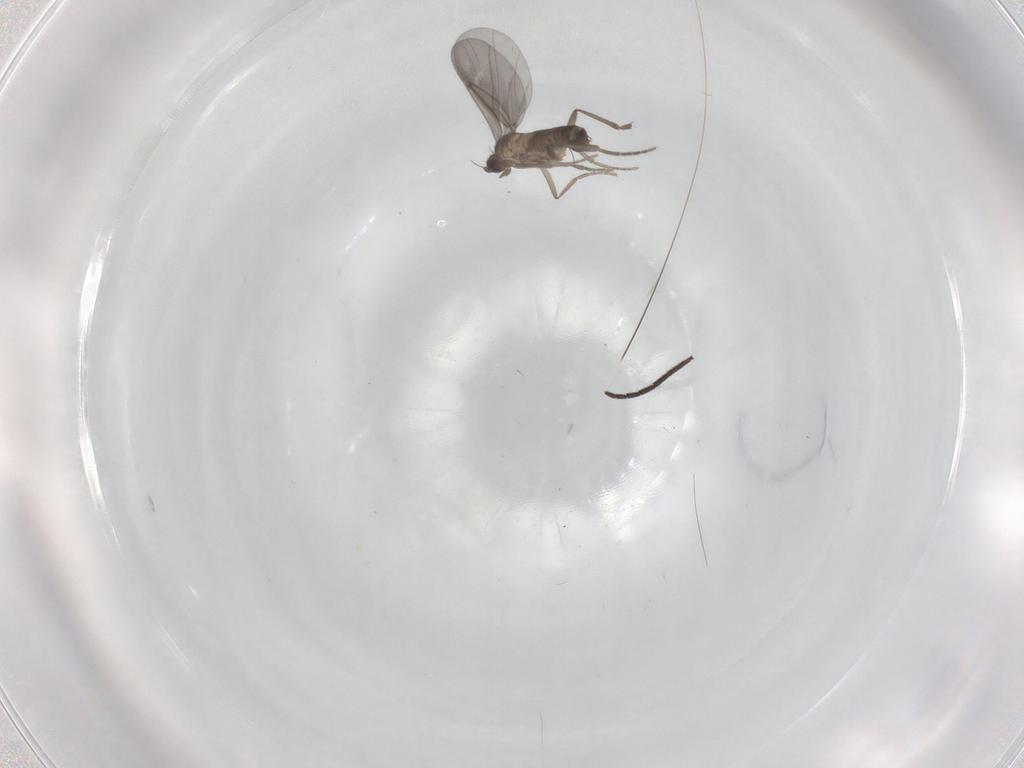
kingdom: Animalia
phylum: Arthropoda
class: Insecta
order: Diptera
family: Phoridae
